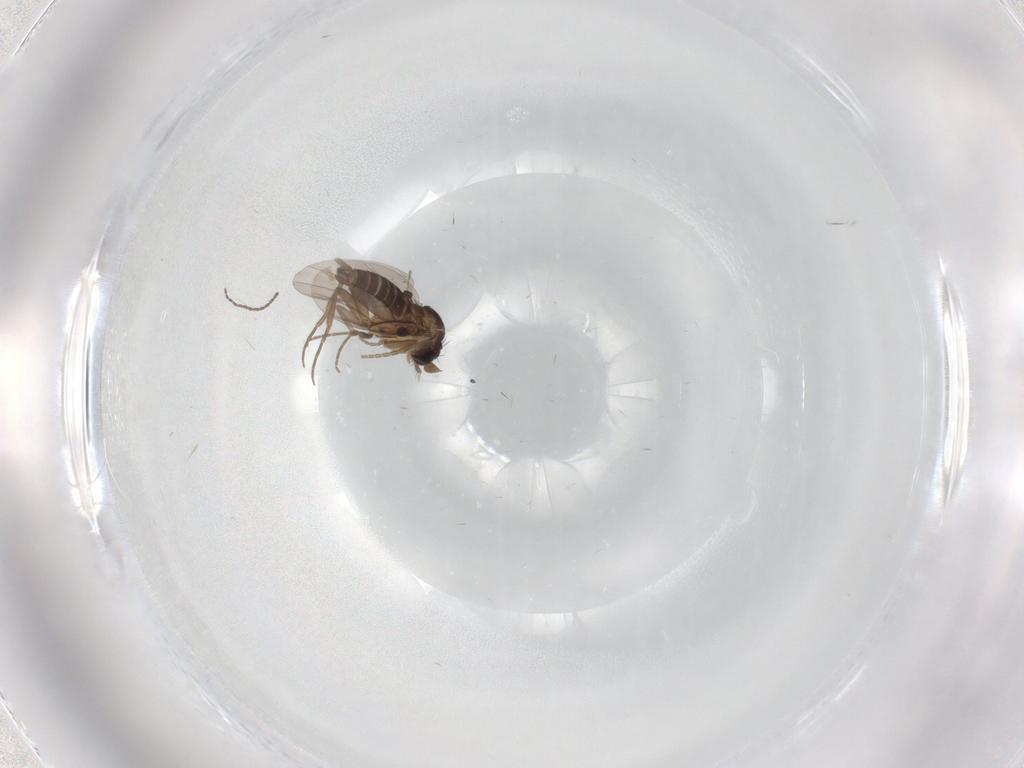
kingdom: Animalia
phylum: Arthropoda
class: Insecta
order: Diptera
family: Phoridae
